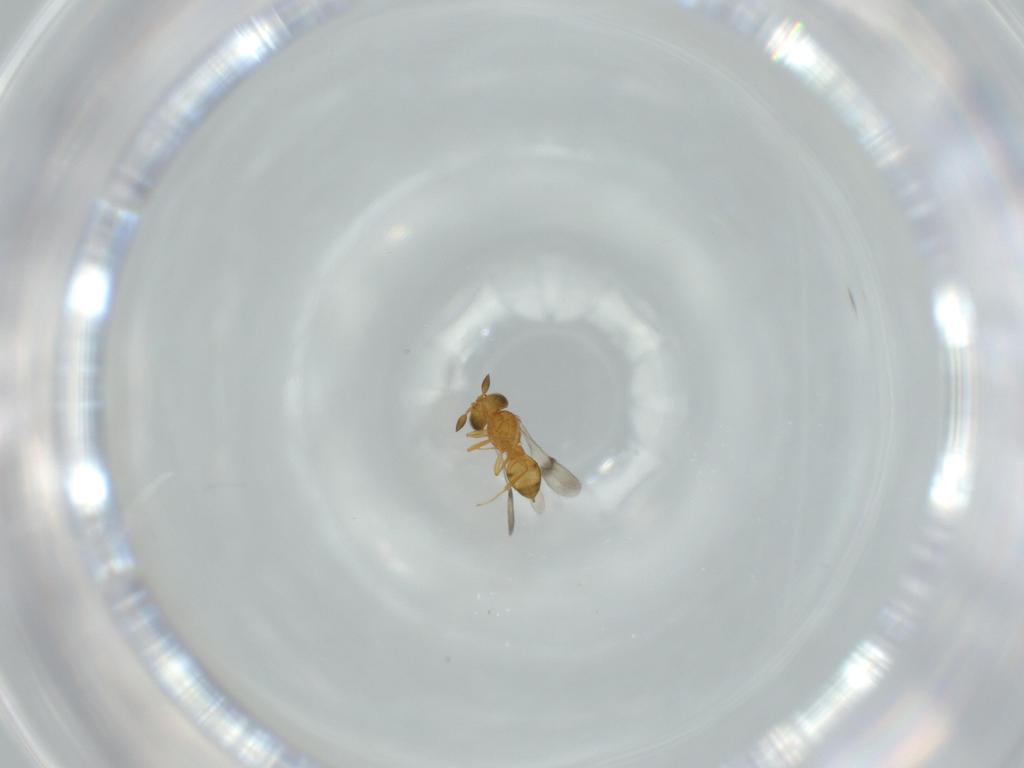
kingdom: Animalia
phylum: Arthropoda
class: Insecta
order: Hymenoptera
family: Scelionidae
